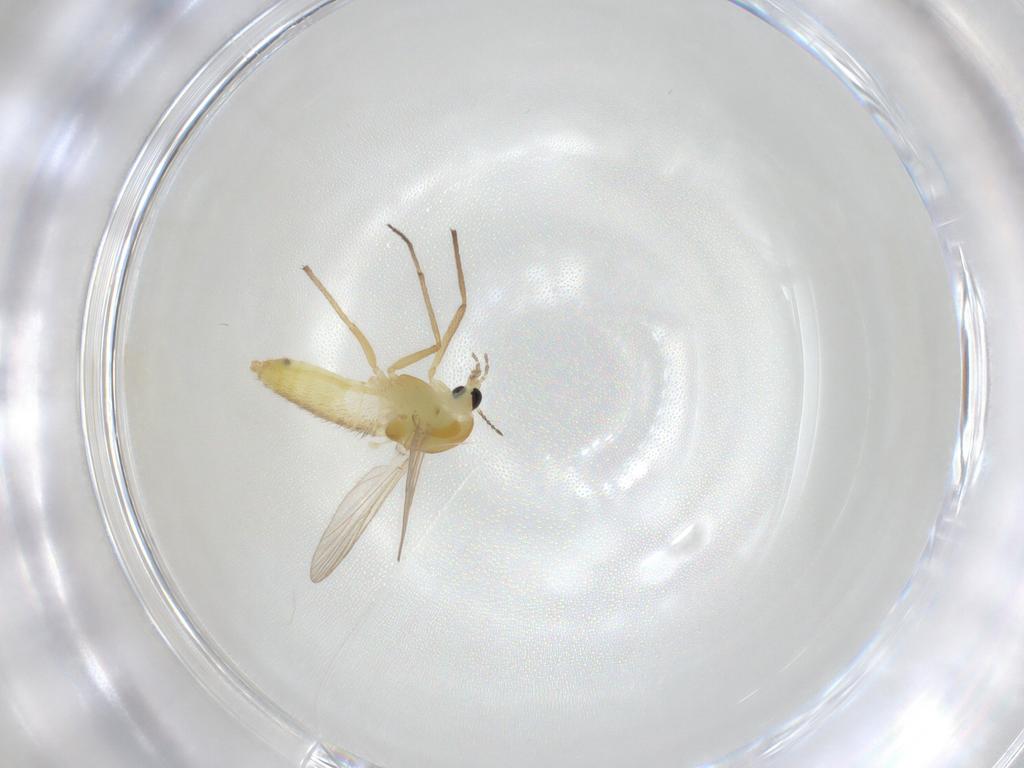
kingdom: Animalia
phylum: Arthropoda
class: Insecta
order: Diptera
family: Chironomidae
